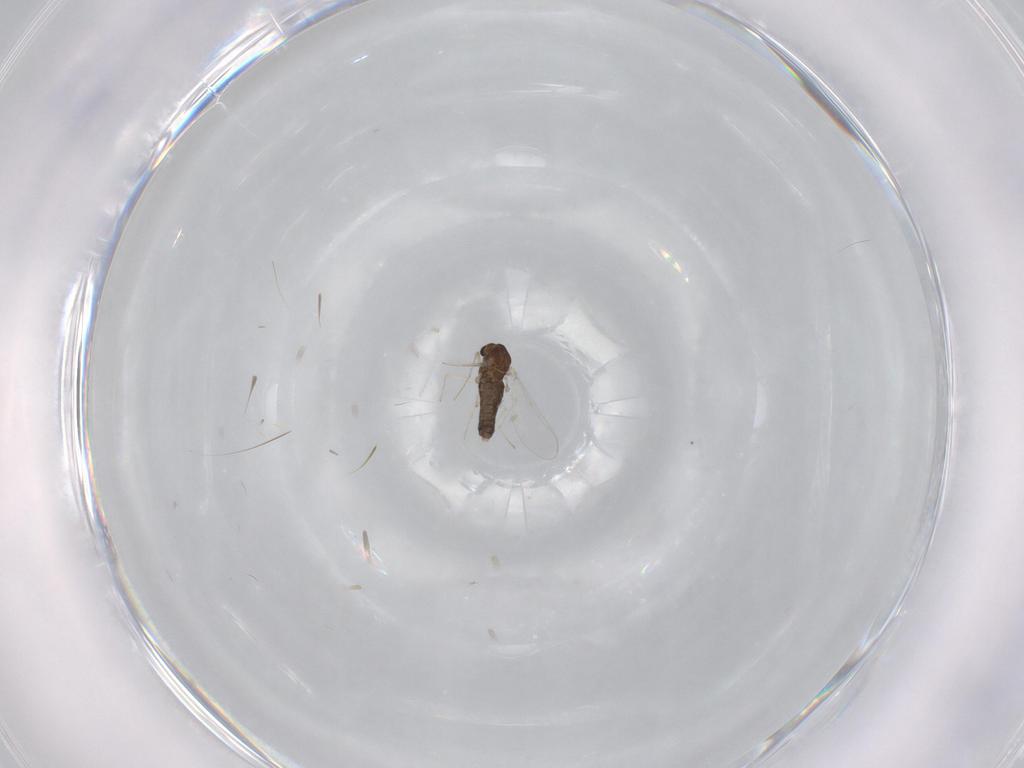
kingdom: Animalia
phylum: Arthropoda
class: Insecta
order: Diptera
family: Chironomidae
